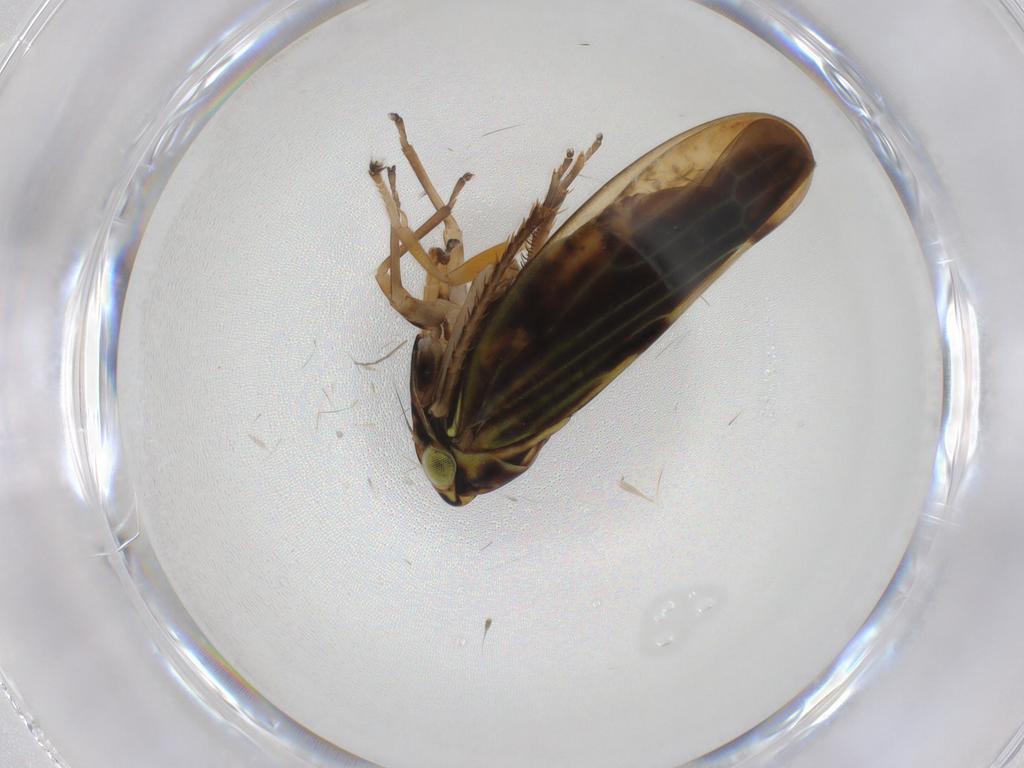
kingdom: Animalia
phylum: Arthropoda
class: Insecta
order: Hemiptera
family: Cicadellidae
